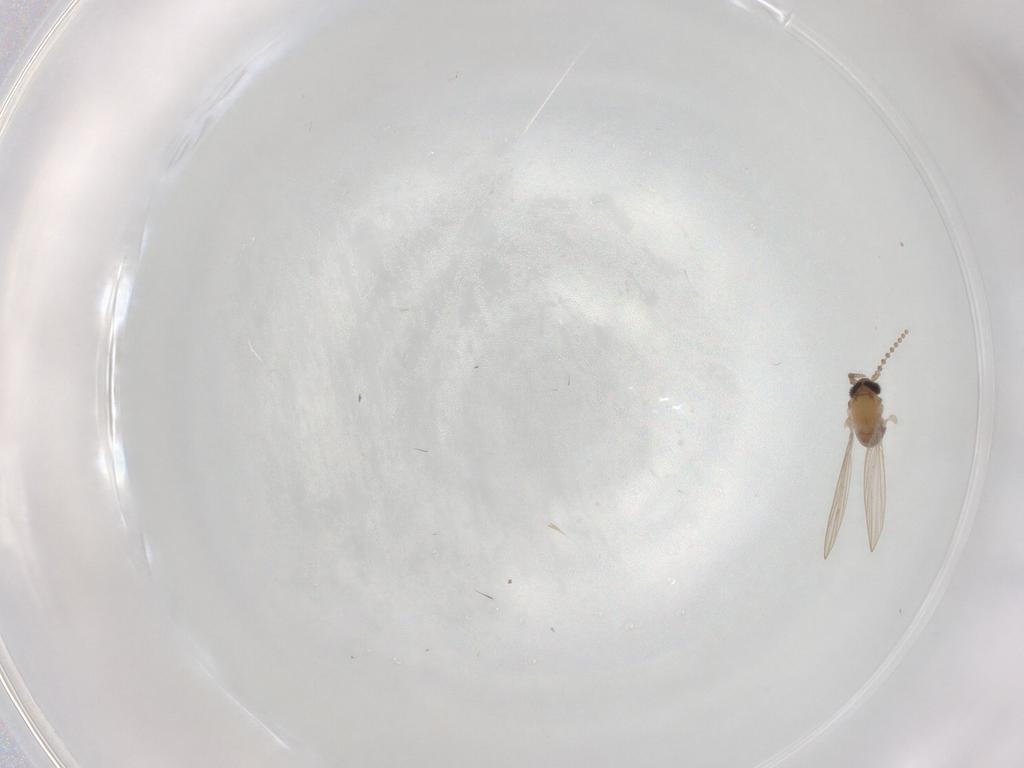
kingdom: Animalia
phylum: Arthropoda
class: Insecta
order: Diptera
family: Psychodidae
